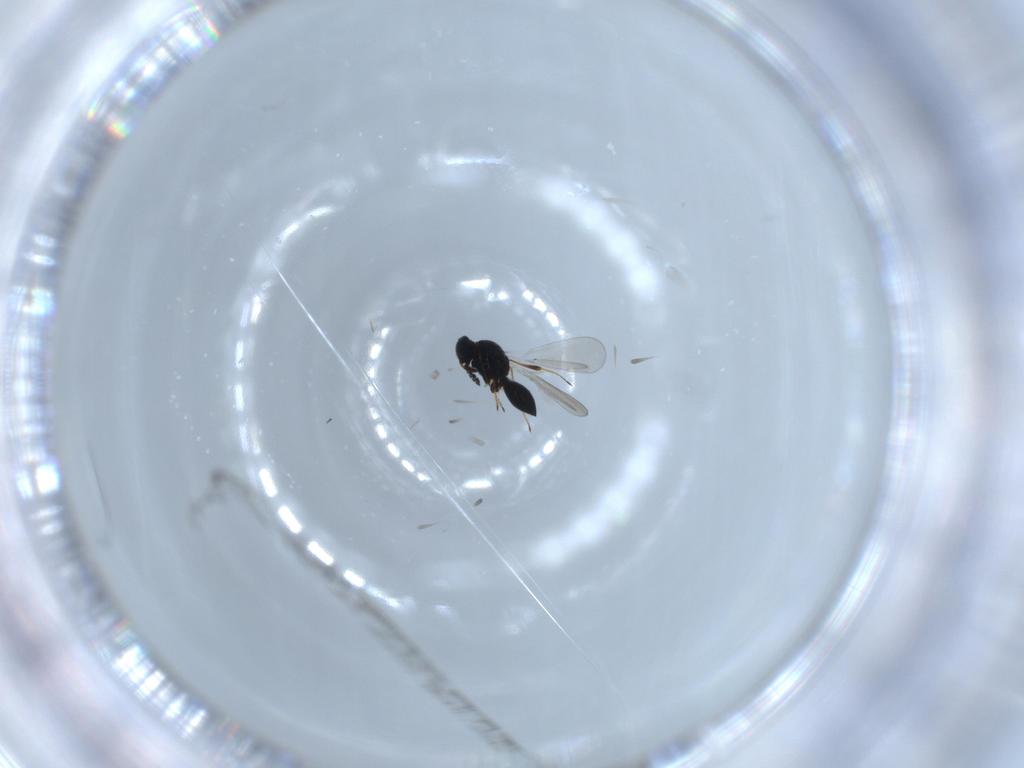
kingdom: Animalia
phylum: Arthropoda
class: Insecta
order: Hymenoptera
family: Platygastridae
